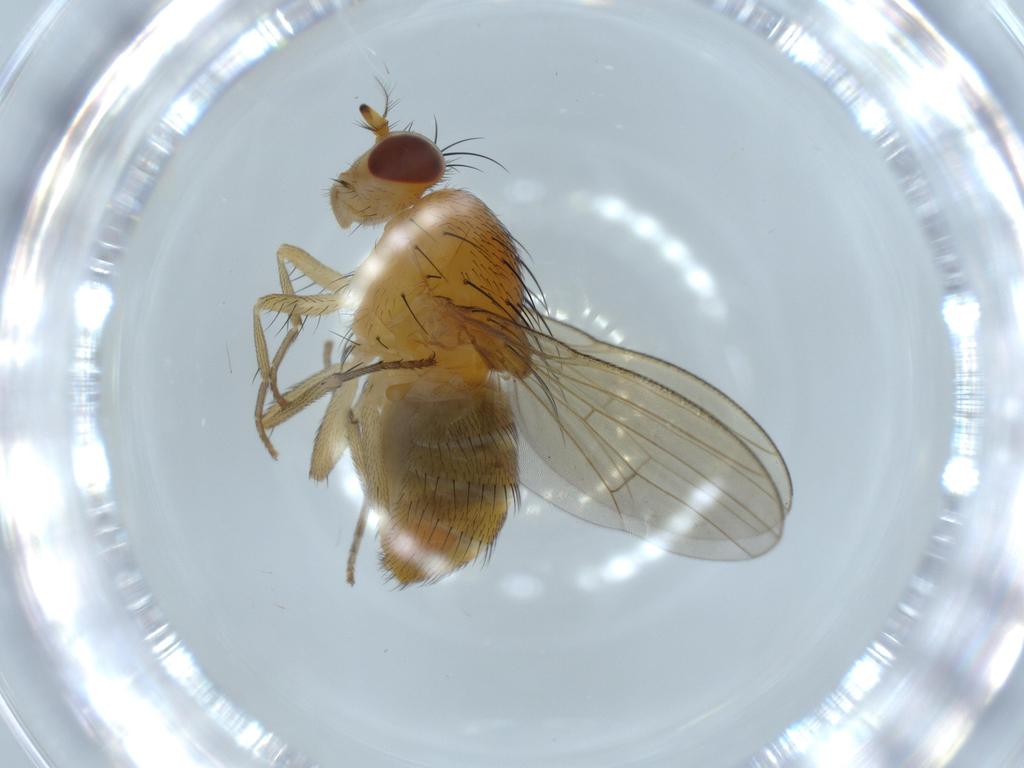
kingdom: Animalia
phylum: Arthropoda
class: Insecta
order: Diptera
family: Lauxaniidae
